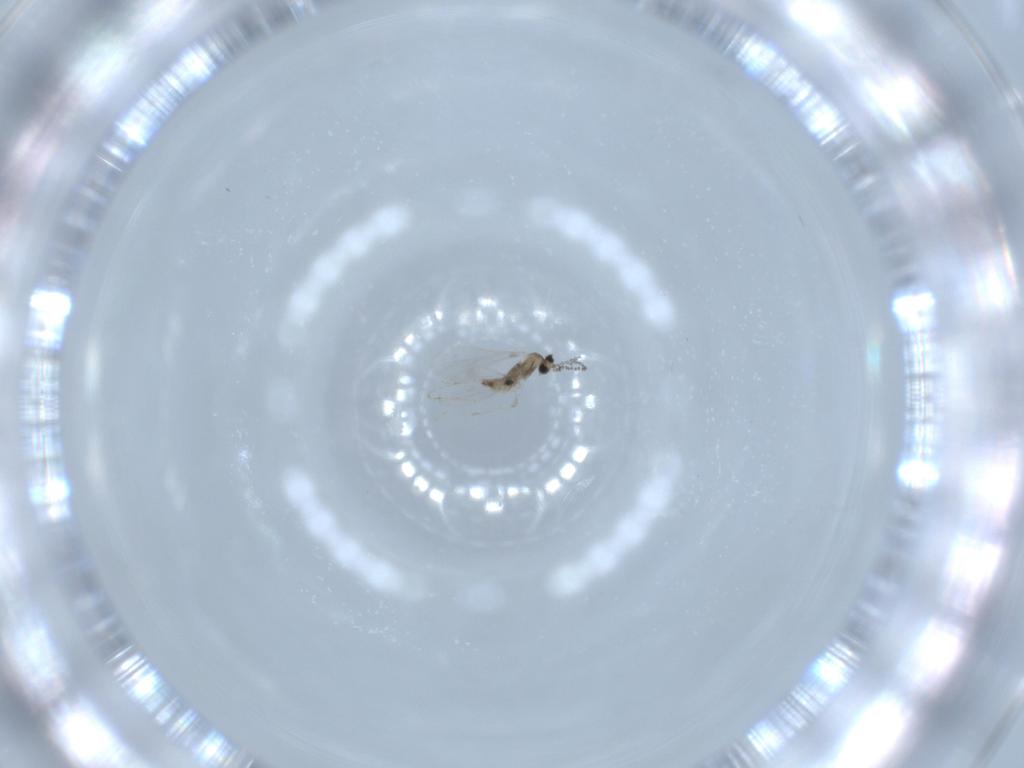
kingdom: Animalia
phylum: Arthropoda
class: Insecta
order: Diptera
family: Cecidomyiidae
